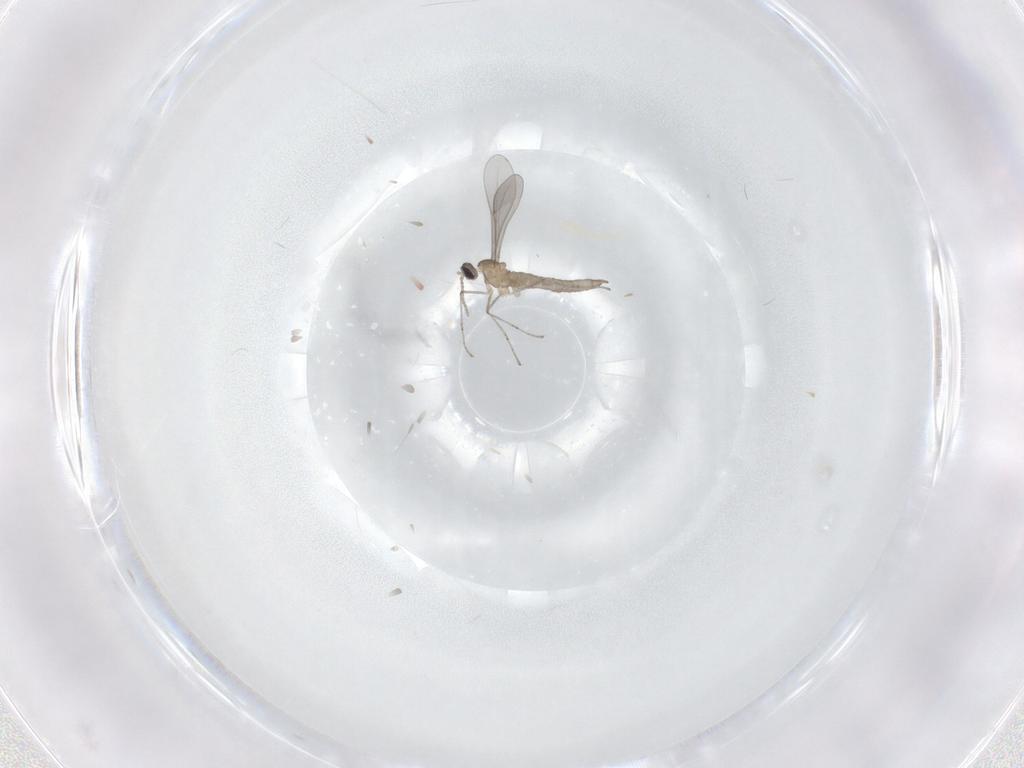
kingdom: Animalia
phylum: Arthropoda
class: Insecta
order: Diptera
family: Cecidomyiidae
